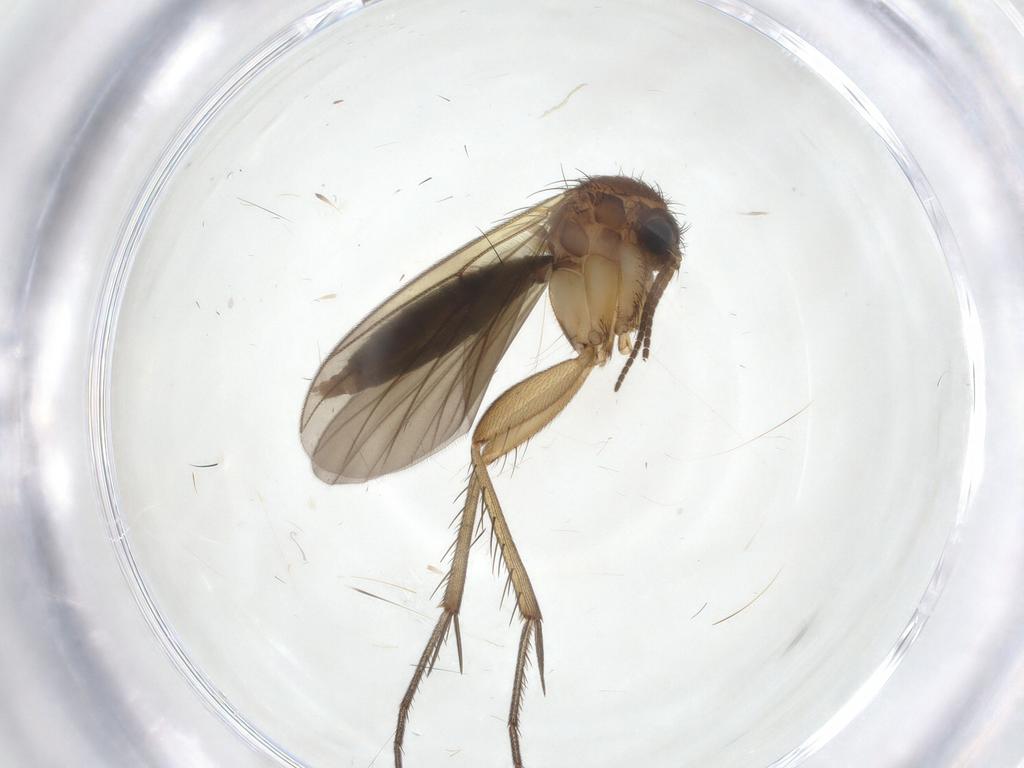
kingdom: Animalia
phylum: Arthropoda
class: Insecta
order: Diptera
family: Mycetophilidae
